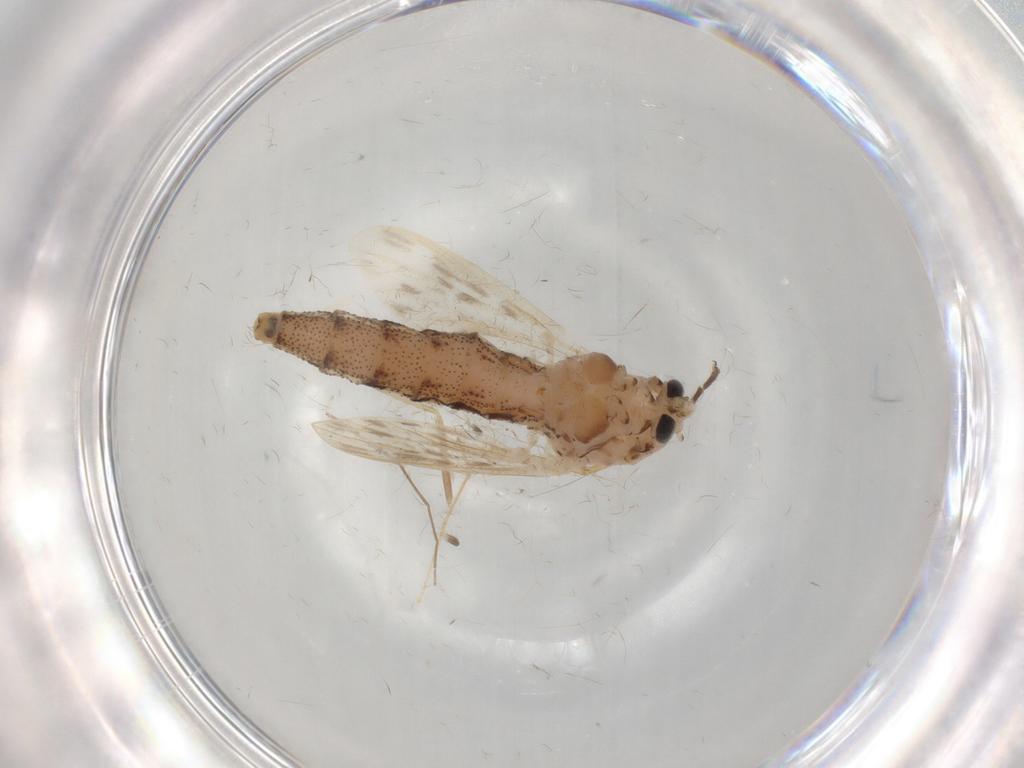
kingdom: Animalia
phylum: Arthropoda
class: Insecta
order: Diptera
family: Chaoboridae
